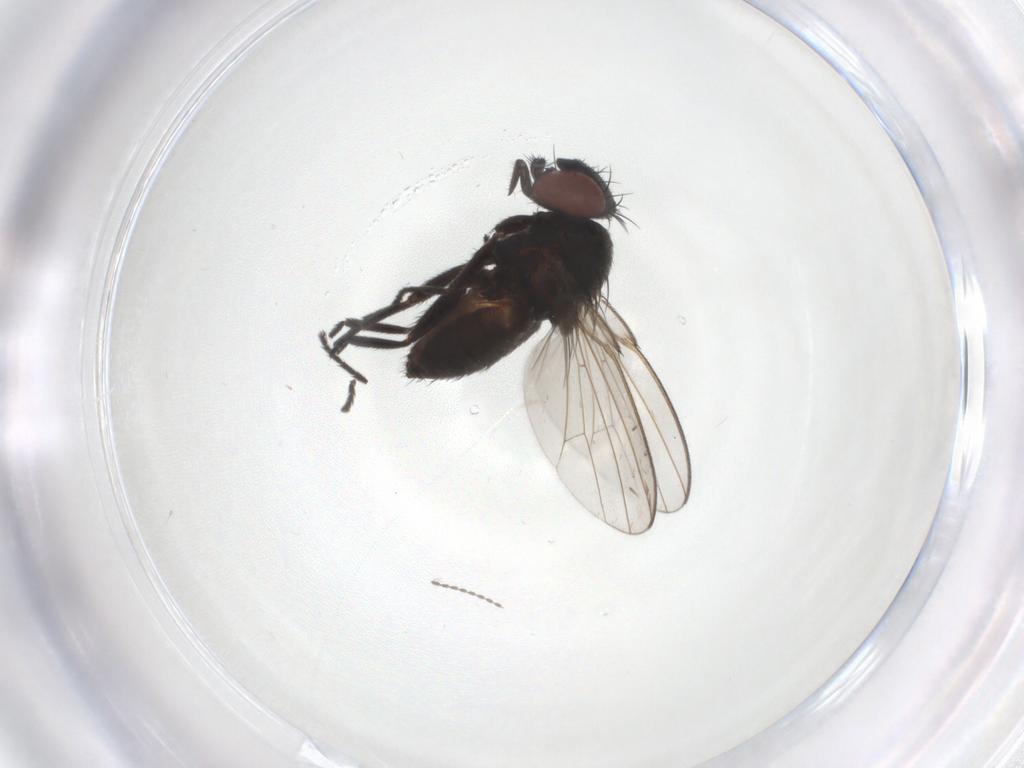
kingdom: Animalia
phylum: Arthropoda
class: Insecta
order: Diptera
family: Milichiidae
